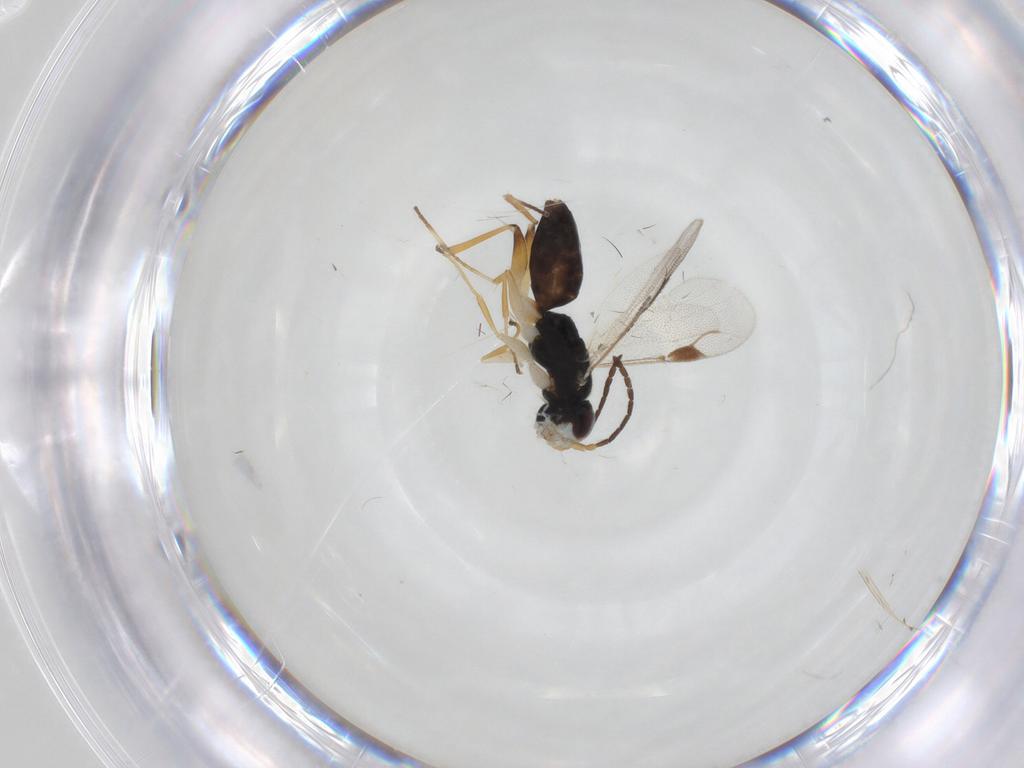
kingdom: Animalia
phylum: Arthropoda
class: Insecta
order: Hymenoptera
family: Dryinidae
